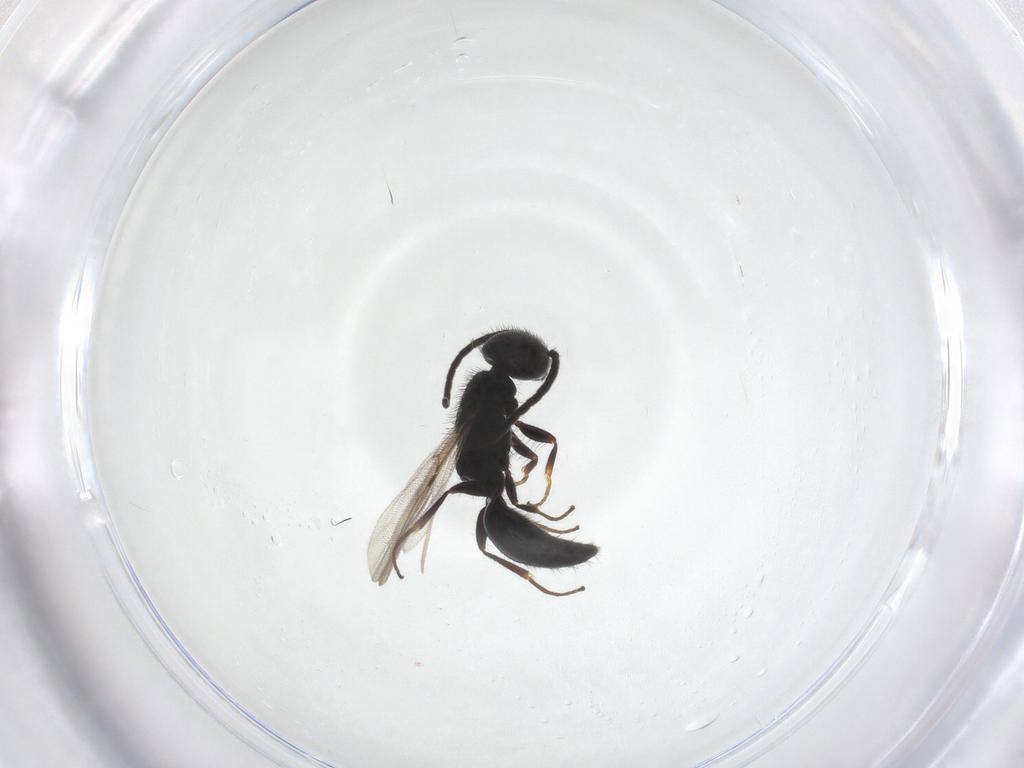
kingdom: Animalia
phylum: Arthropoda
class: Insecta
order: Hymenoptera
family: Bethylidae
